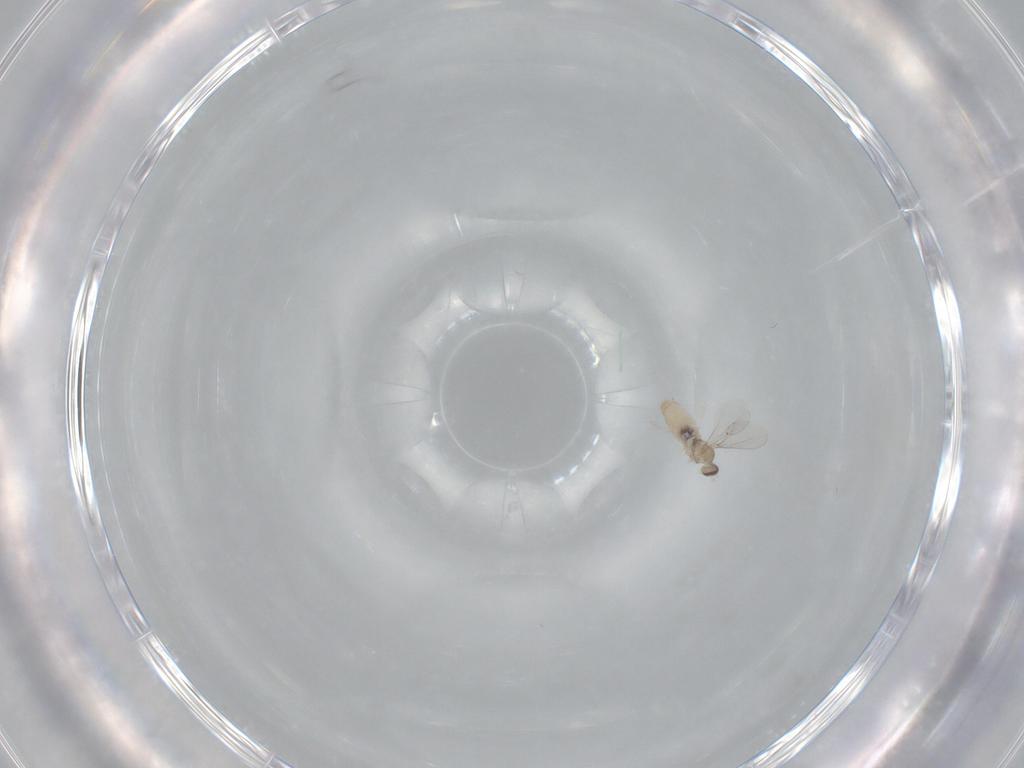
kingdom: Animalia
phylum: Arthropoda
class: Insecta
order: Diptera
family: Cecidomyiidae
